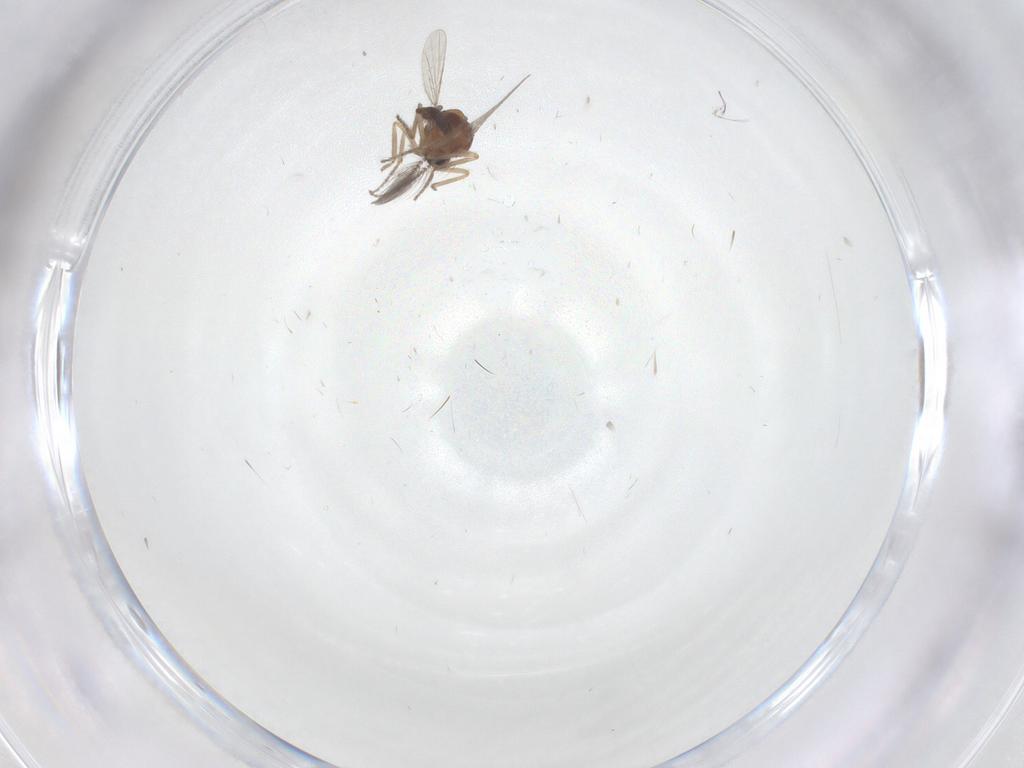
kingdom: Animalia
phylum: Arthropoda
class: Insecta
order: Diptera
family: Ceratopogonidae
